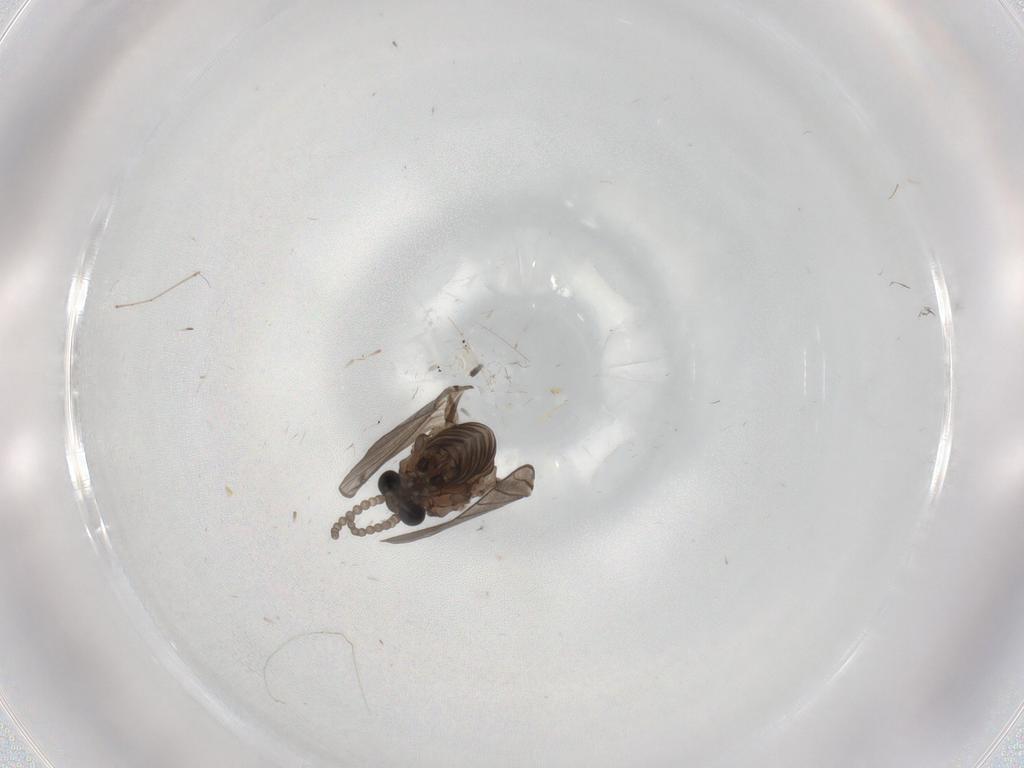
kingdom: Animalia
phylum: Arthropoda
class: Insecta
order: Diptera
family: Psychodidae
